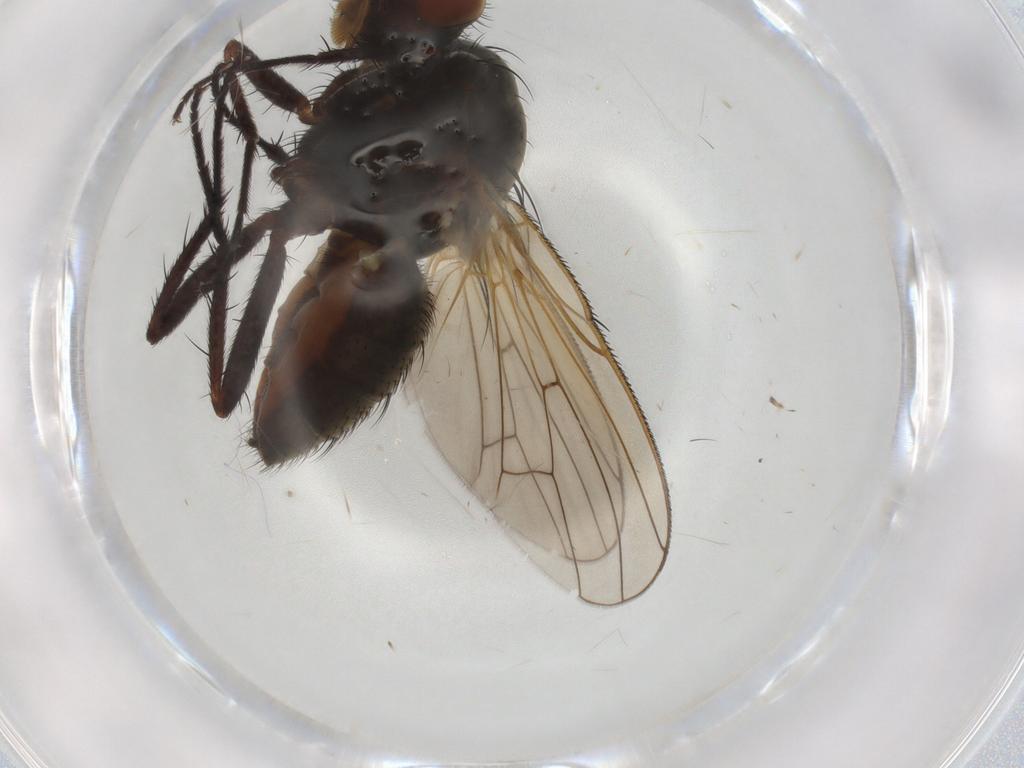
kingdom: Animalia
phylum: Arthropoda
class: Insecta
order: Diptera
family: Anthomyiidae
